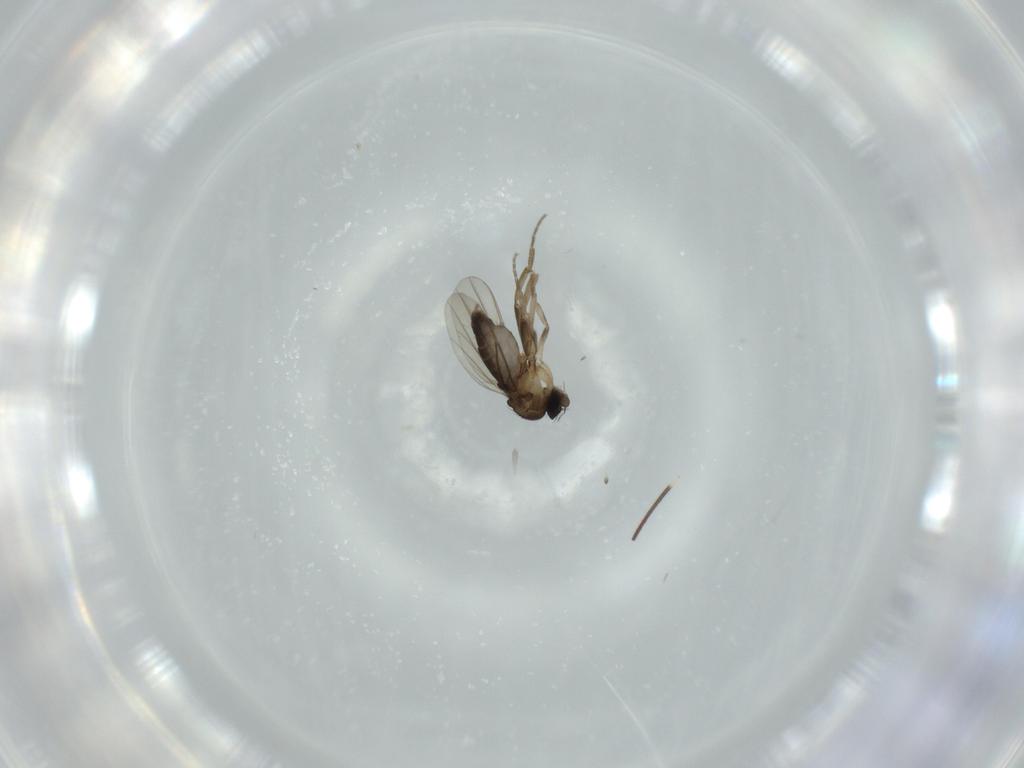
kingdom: Animalia
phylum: Arthropoda
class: Insecta
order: Diptera
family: Phoridae
